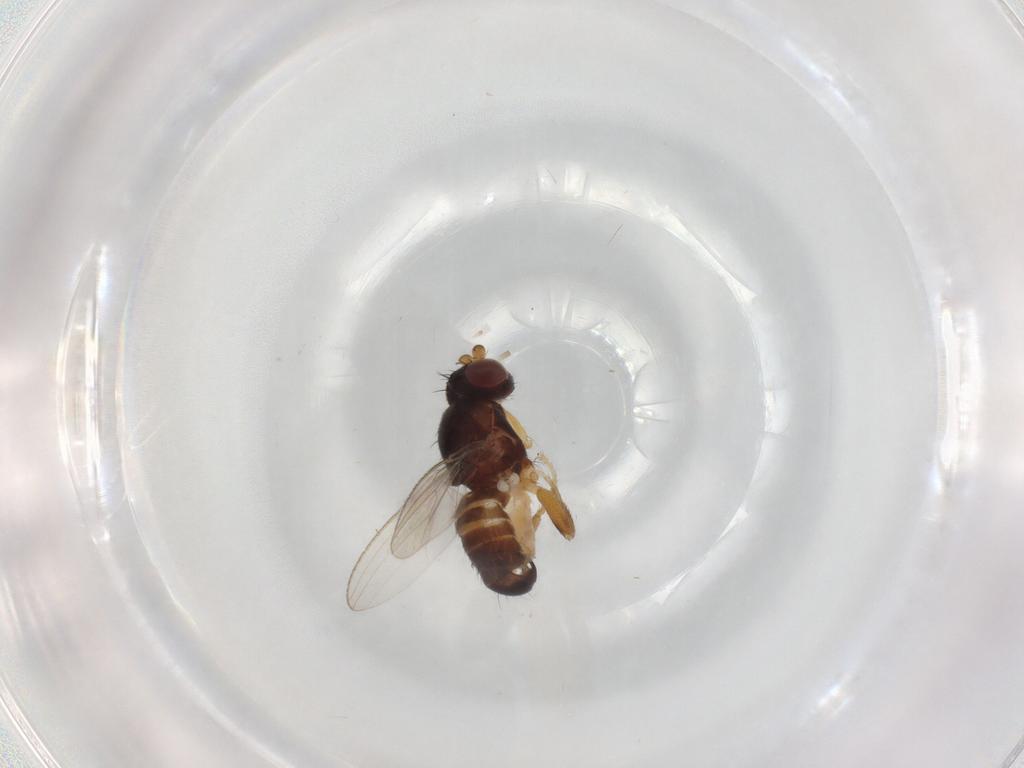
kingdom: Animalia
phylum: Arthropoda
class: Insecta
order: Diptera
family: Cypselosomatidae
